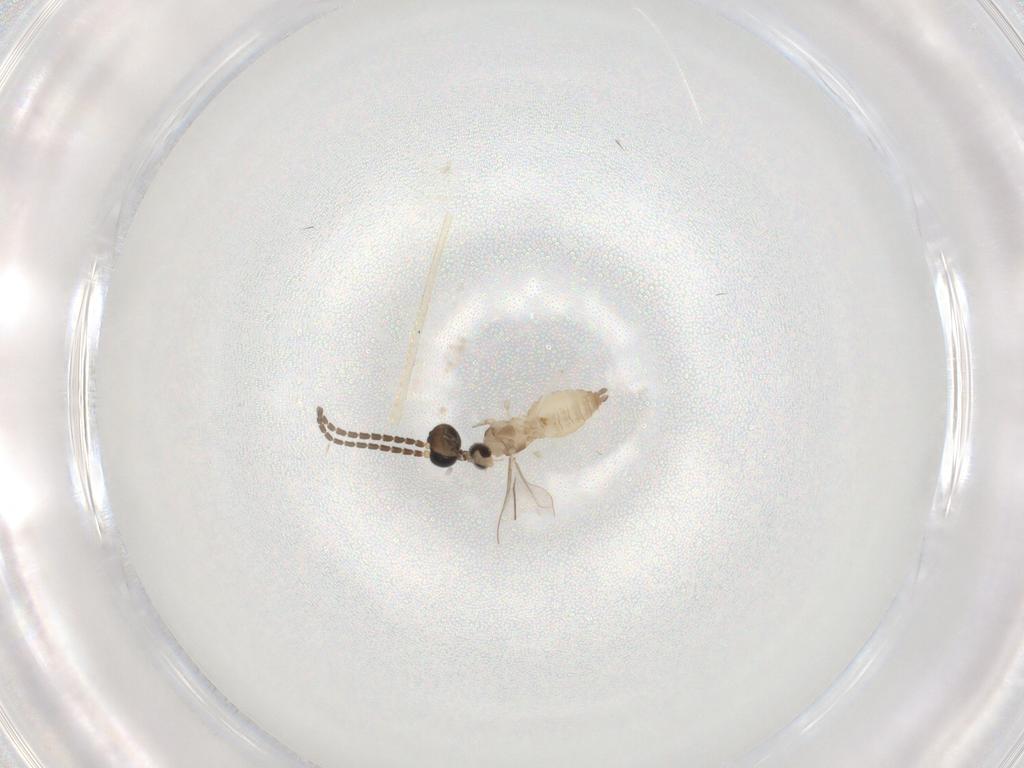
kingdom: Animalia
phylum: Arthropoda
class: Insecta
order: Diptera
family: Cecidomyiidae
